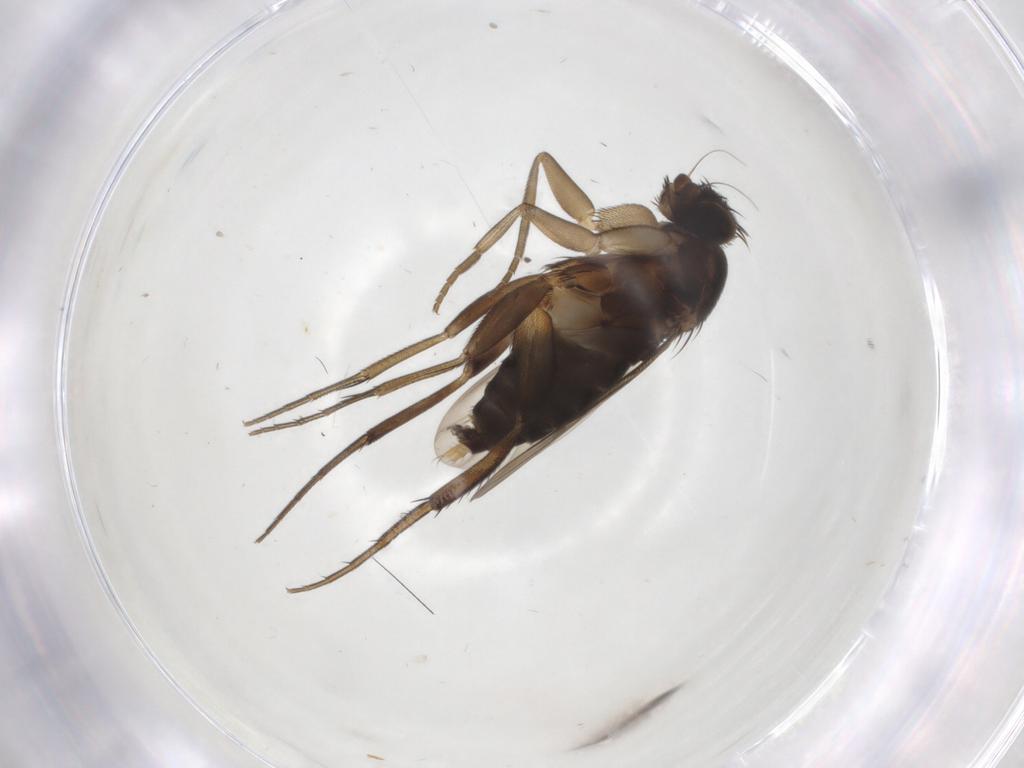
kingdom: Animalia
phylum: Arthropoda
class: Insecta
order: Diptera
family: Phoridae
